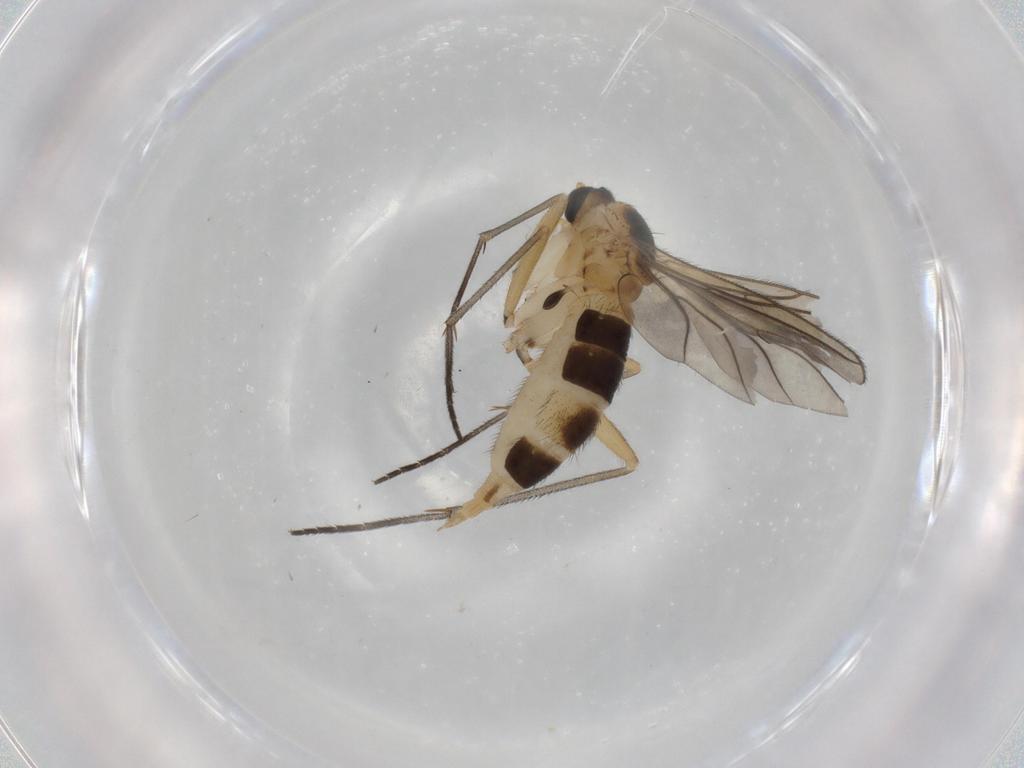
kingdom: Animalia
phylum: Arthropoda
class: Insecta
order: Diptera
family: Sciaridae
